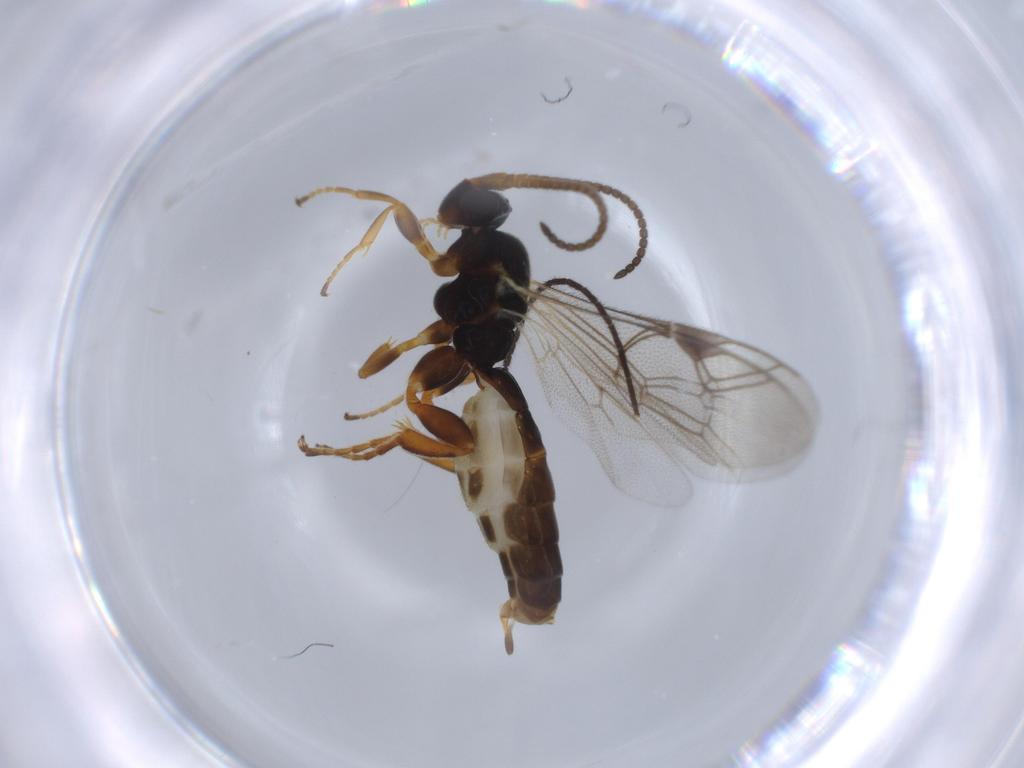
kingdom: Animalia
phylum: Arthropoda
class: Insecta
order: Hymenoptera
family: Ichneumonidae
